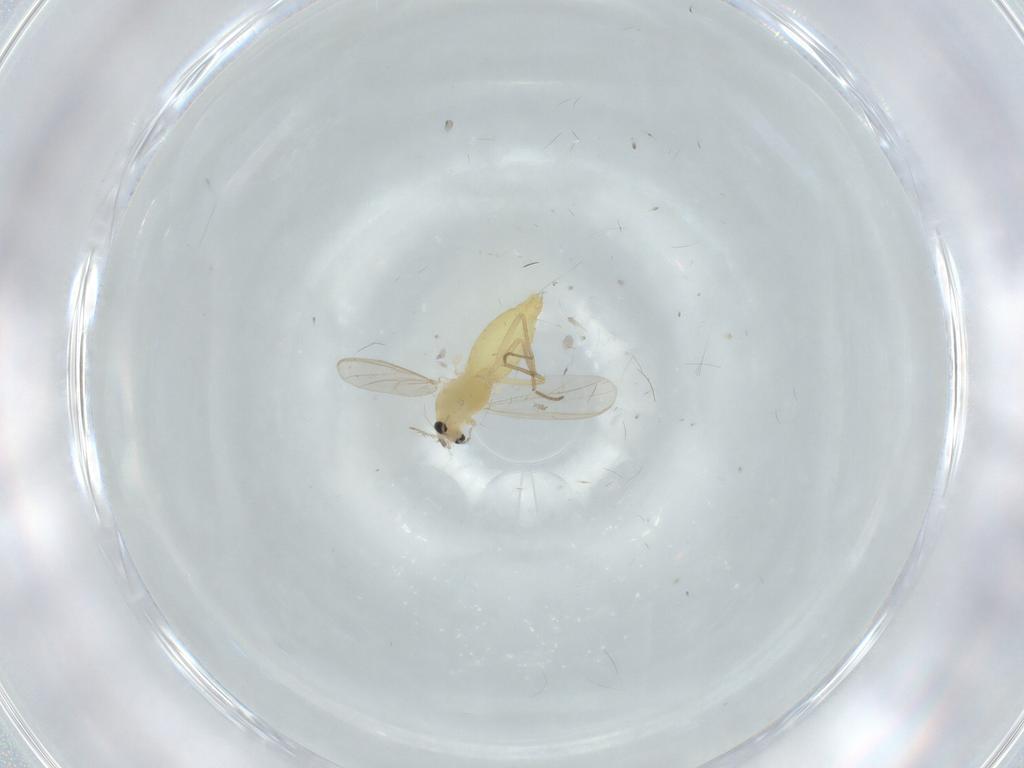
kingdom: Animalia
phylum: Arthropoda
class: Insecta
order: Diptera
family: Chironomidae
